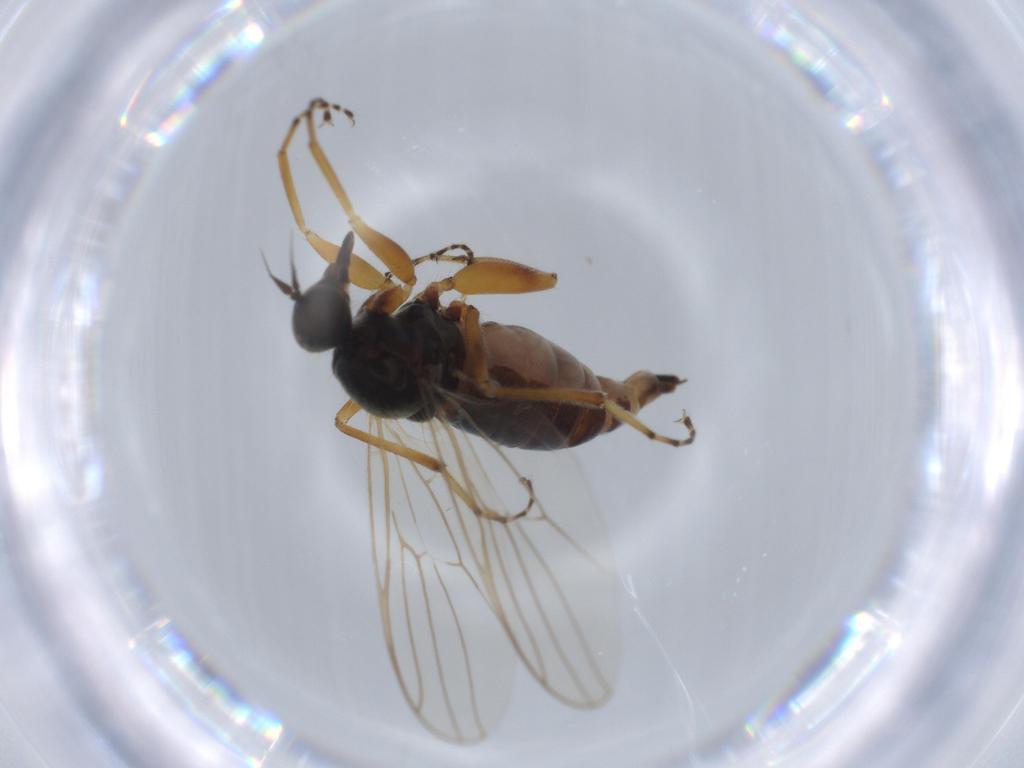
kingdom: Animalia
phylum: Arthropoda
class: Insecta
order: Diptera
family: Hybotidae
